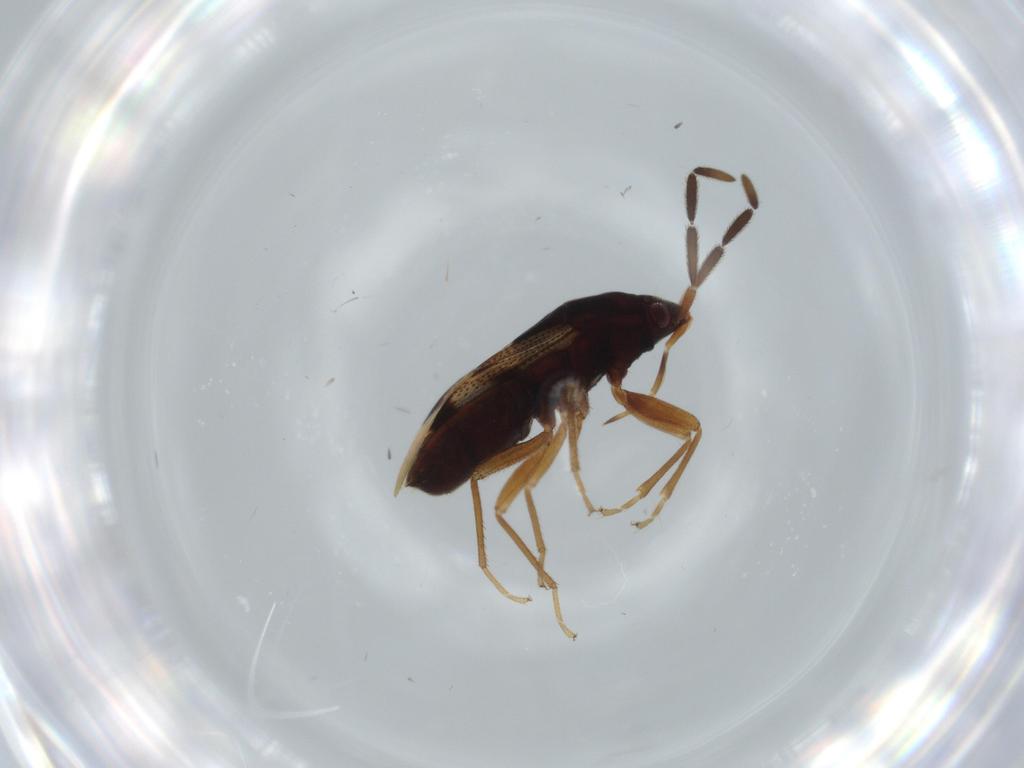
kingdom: Animalia
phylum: Arthropoda
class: Insecta
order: Hemiptera
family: Rhyparochromidae
